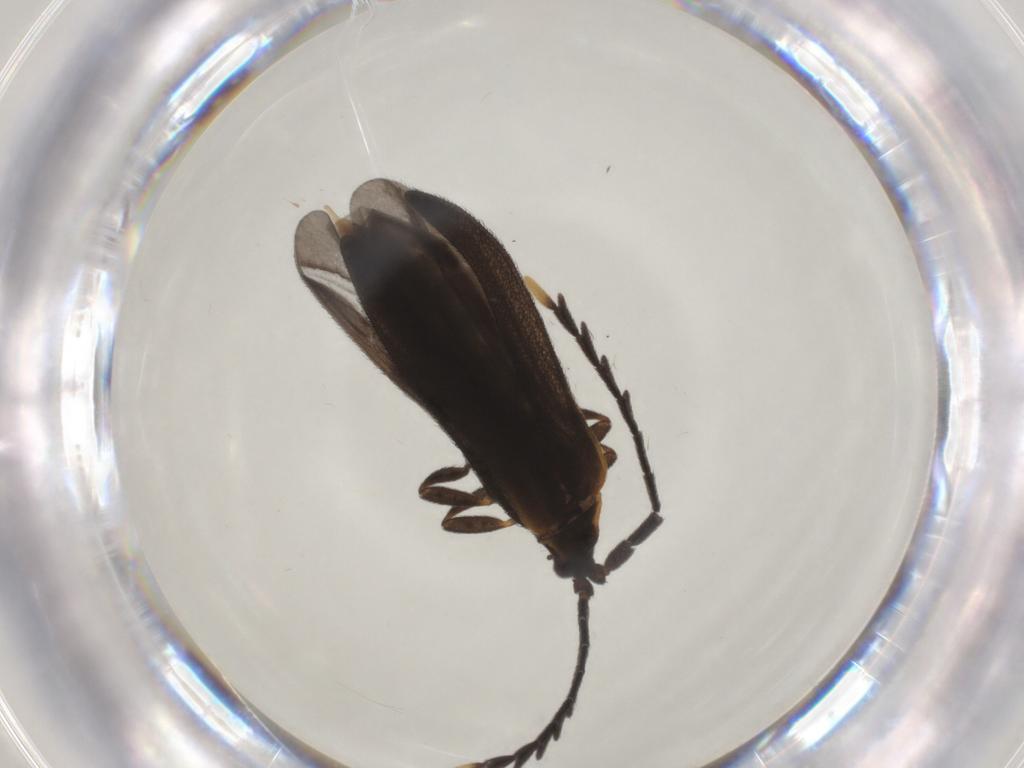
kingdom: Animalia
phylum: Arthropoda
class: Insecta
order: Coleoptera
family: Lycidae
